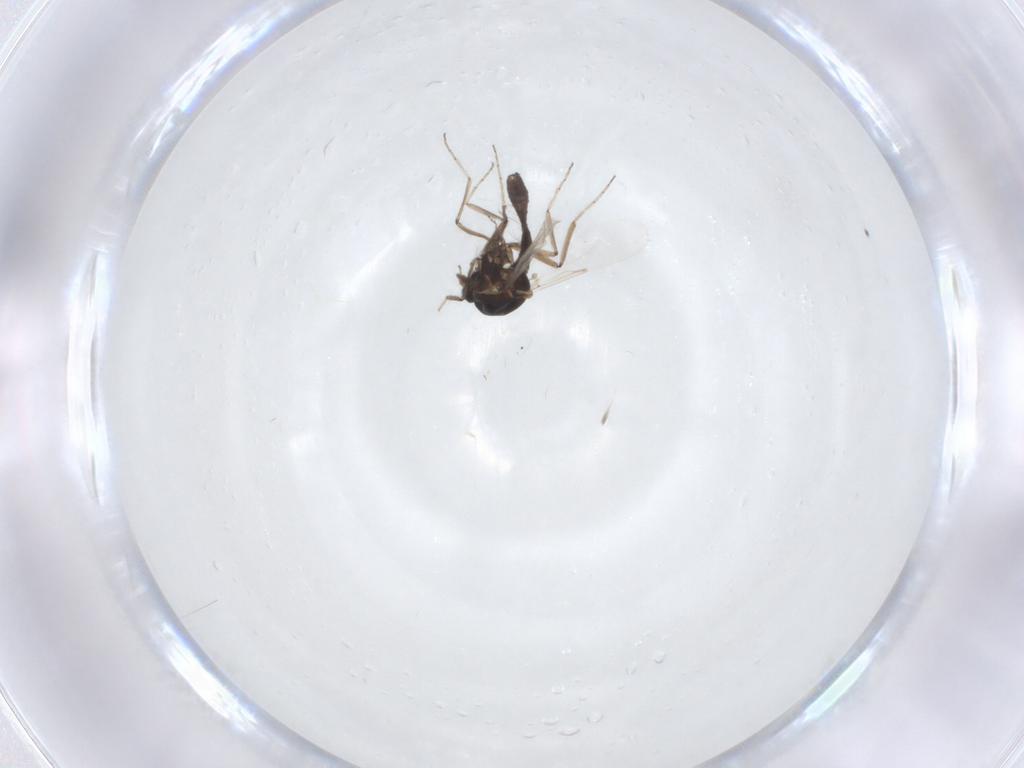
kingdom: Animalia
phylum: Arthropoda
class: Insecta
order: Diptera
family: Ceratopogonidae
